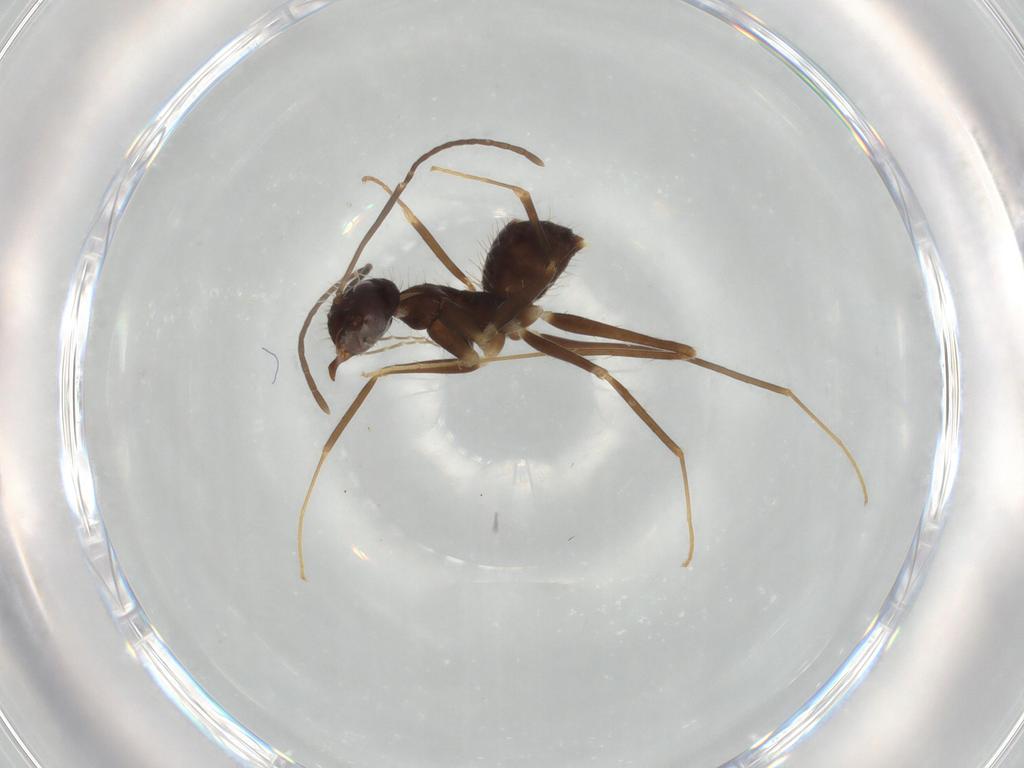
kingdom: Animalia
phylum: Arthropoda
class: Insecta
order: Hymenoptera
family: Formicidae
